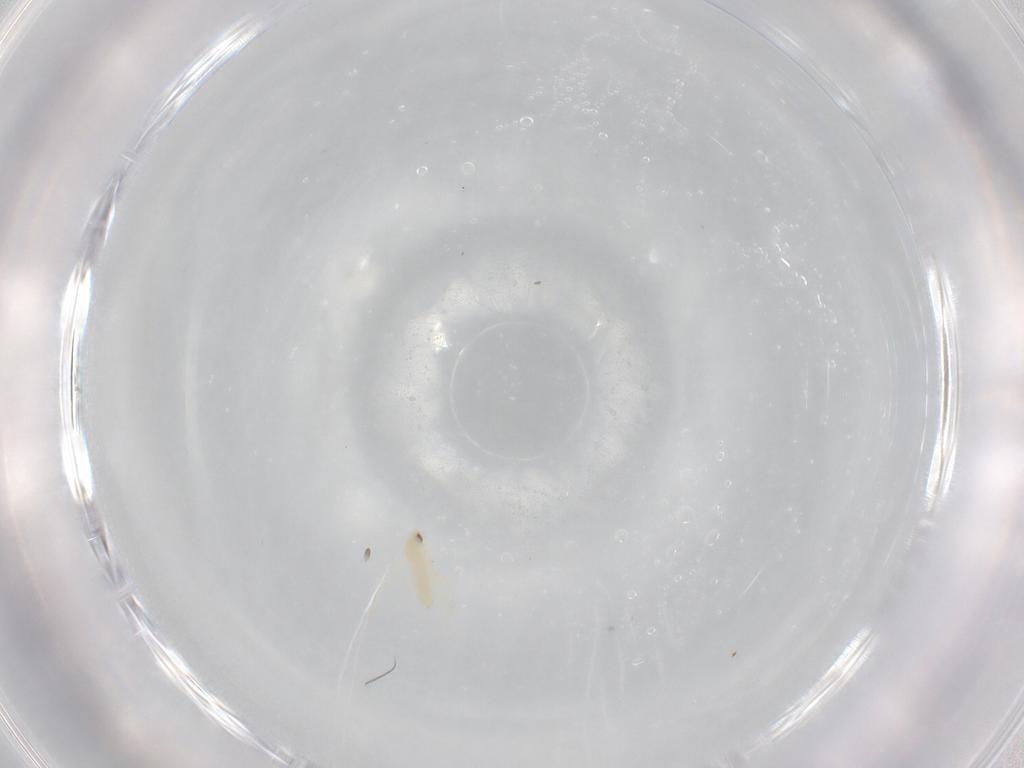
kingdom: Animalia
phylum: Arthropoda
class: Insecta
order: Hemiptera
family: Aleyrodidae
